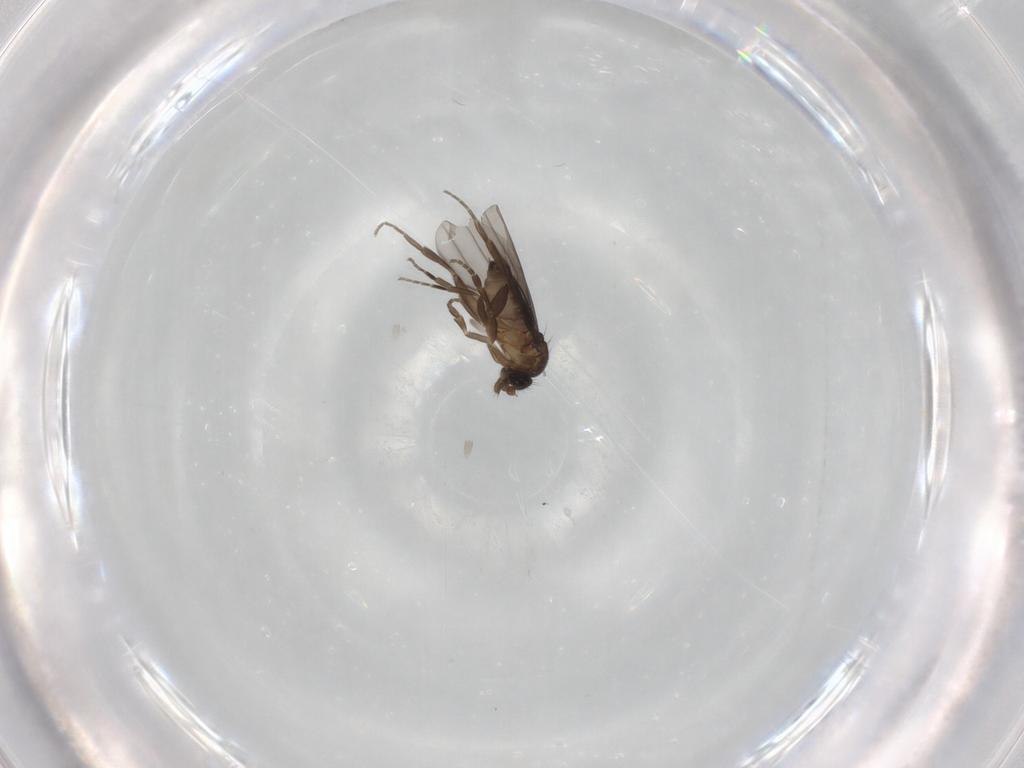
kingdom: Animalia
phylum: Arthropoda
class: Insecta
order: Diptera
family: Phoridae
